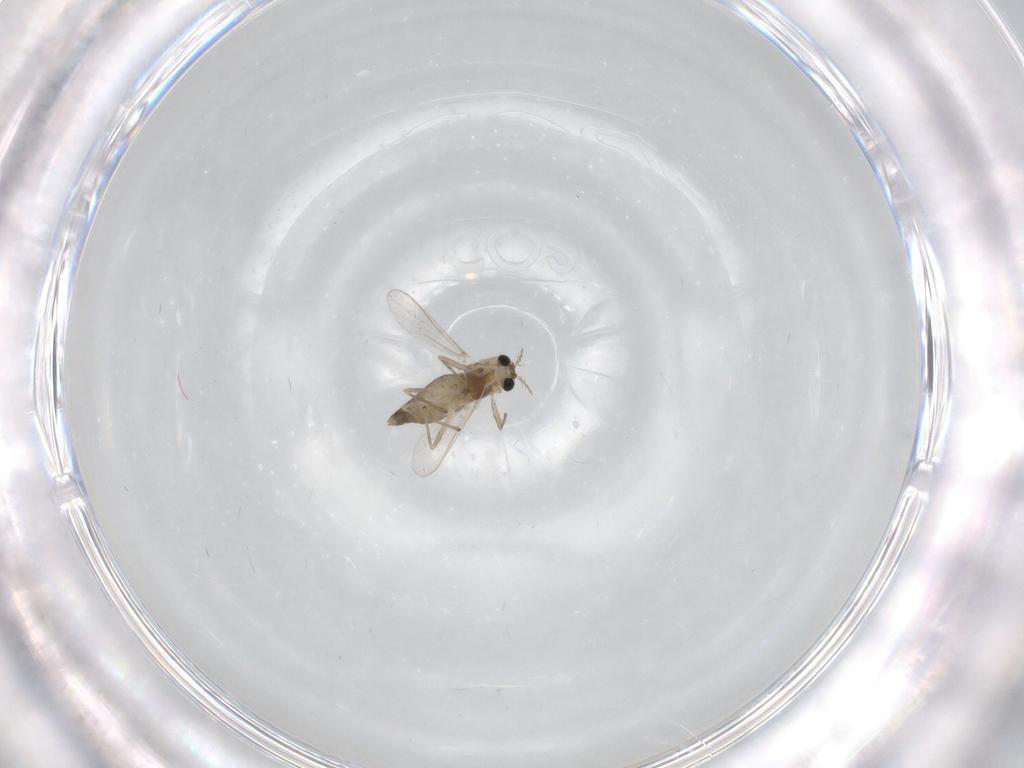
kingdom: Animalia
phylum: Arthropoda
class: Insecta
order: Diptera
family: Chironomidae
